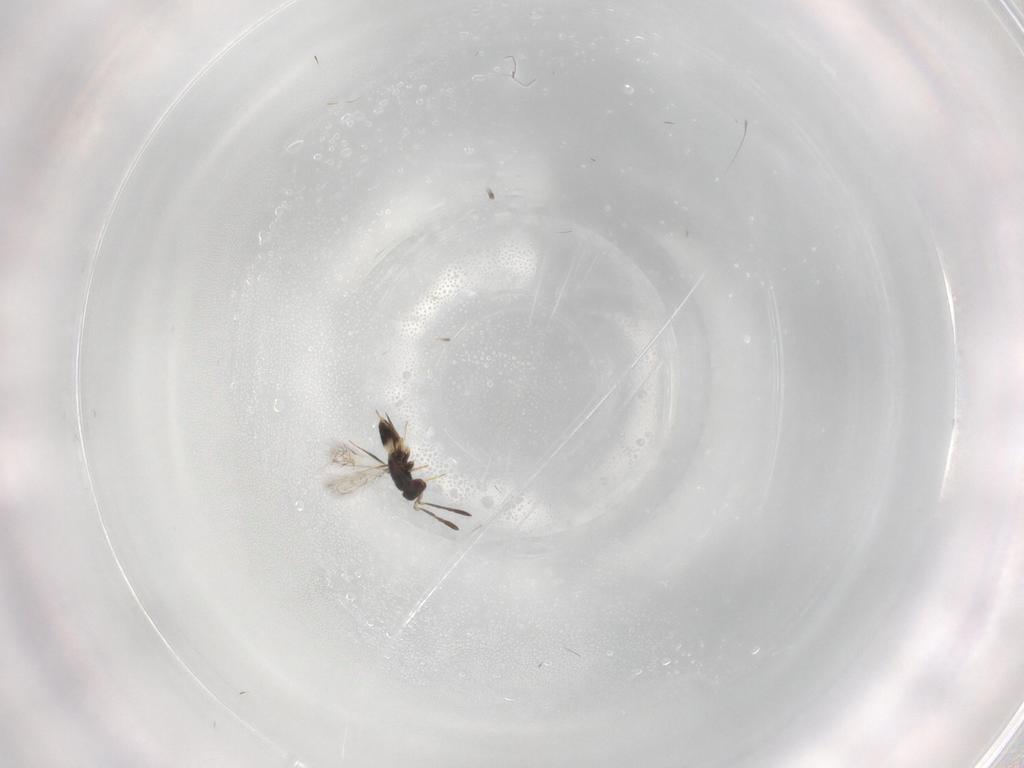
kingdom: Animalia
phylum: Arthropoda
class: Insecta
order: Hymenoptera
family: Mymaridae
